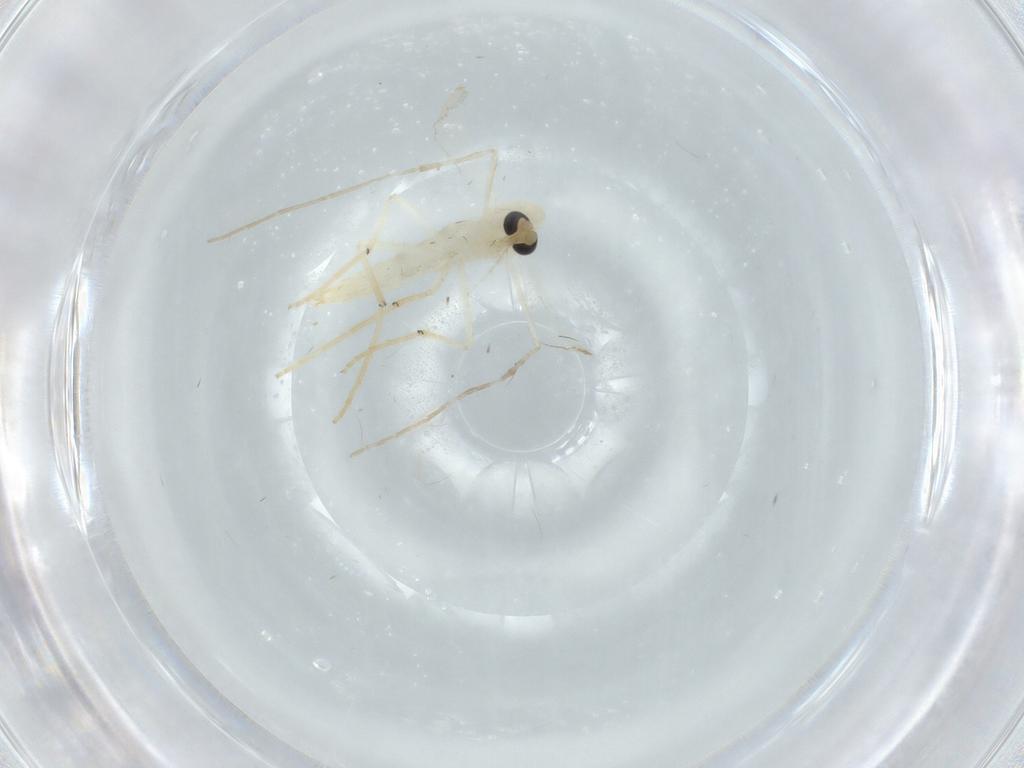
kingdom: Animalia
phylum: Arthropoda
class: Insecta
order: Diptera
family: Chironomidae
